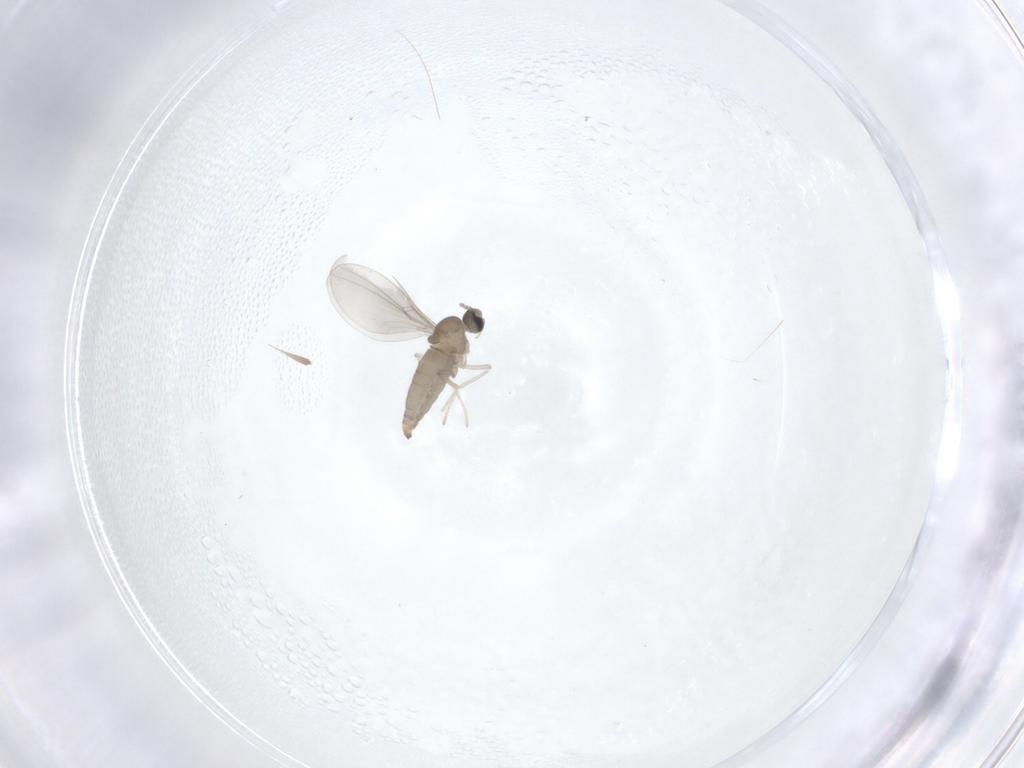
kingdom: Animalia
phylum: Arthropoda
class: Insecta
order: Diptera
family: Cecidomyiidae
